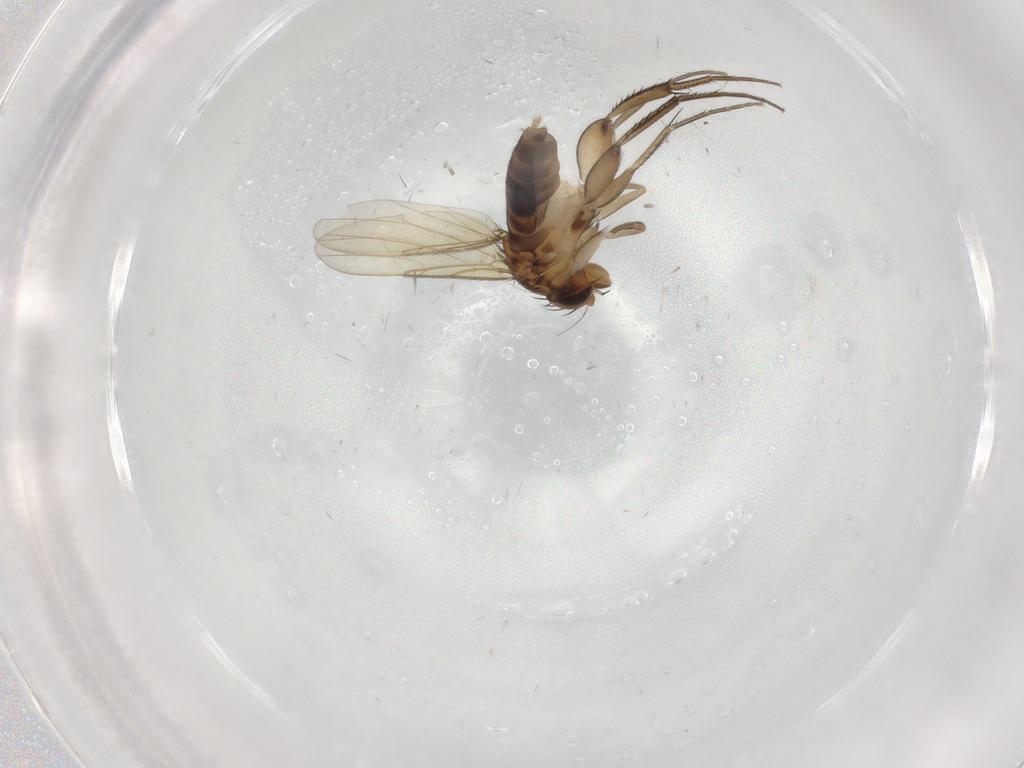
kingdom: Animalia
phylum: Arthropoda
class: Insecta
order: Diptera
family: Phoridae
